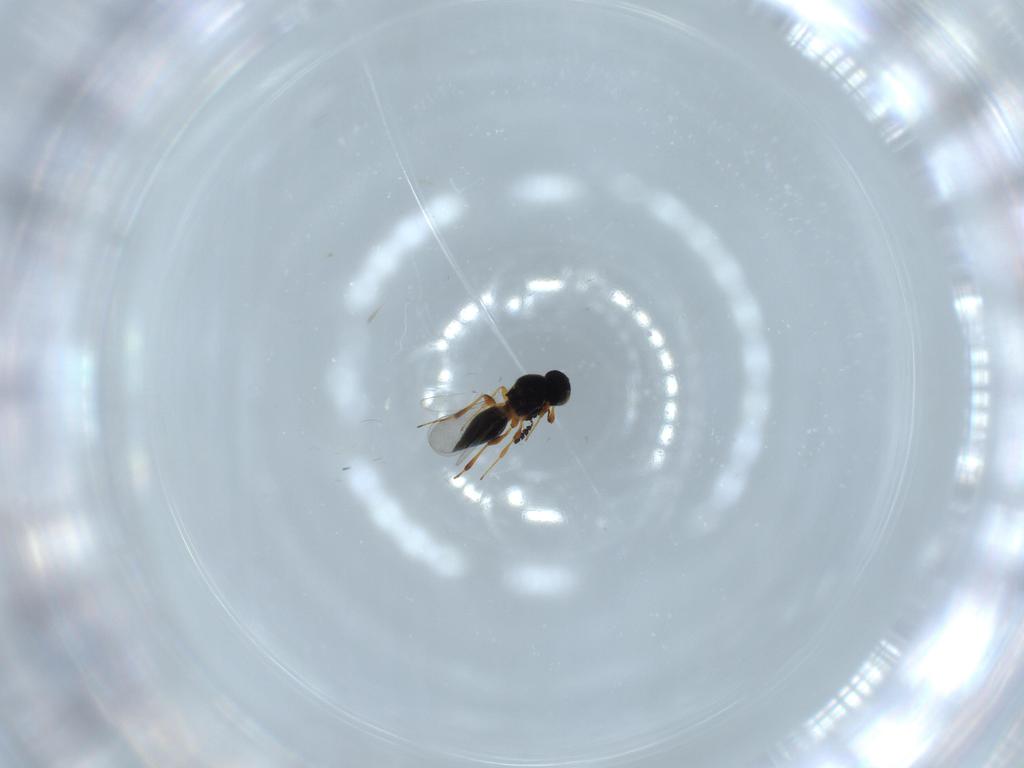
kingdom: Animalia
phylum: Arthropoda
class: Insecta
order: Hymenoptera
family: Platygastridae
